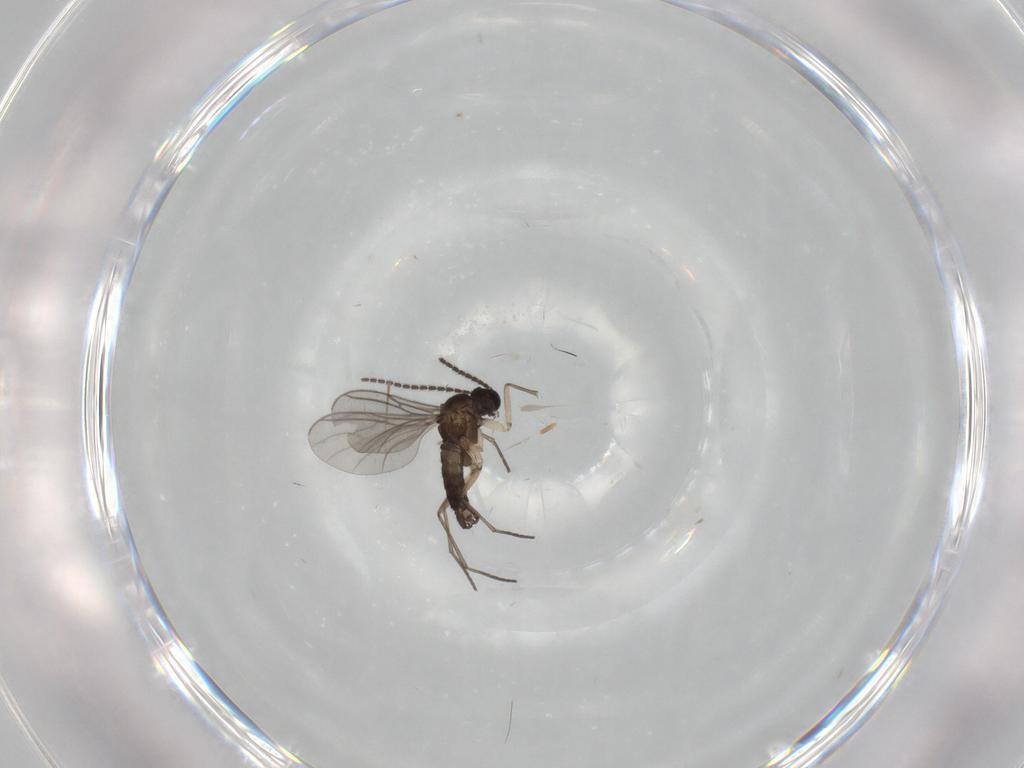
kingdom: Animalia
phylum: Arthropoda
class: Insecta
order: Diptera
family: Sciaridae
